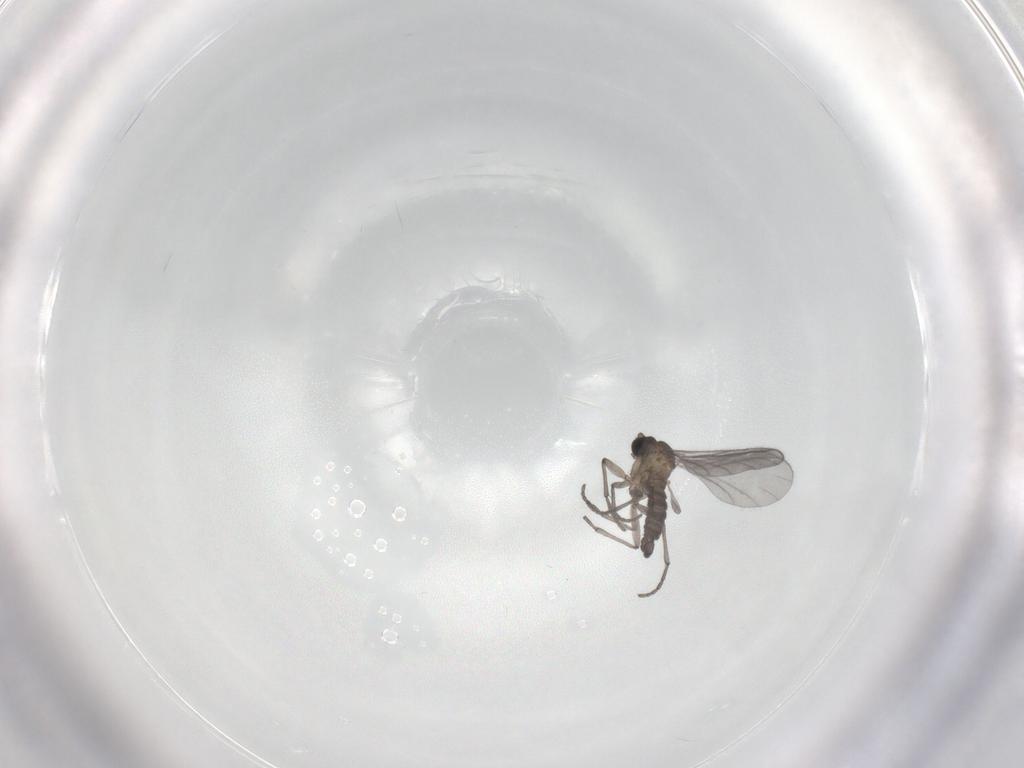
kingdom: Animalia
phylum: Arthropoda
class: Insecta
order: Diptera
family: Sciaridae
